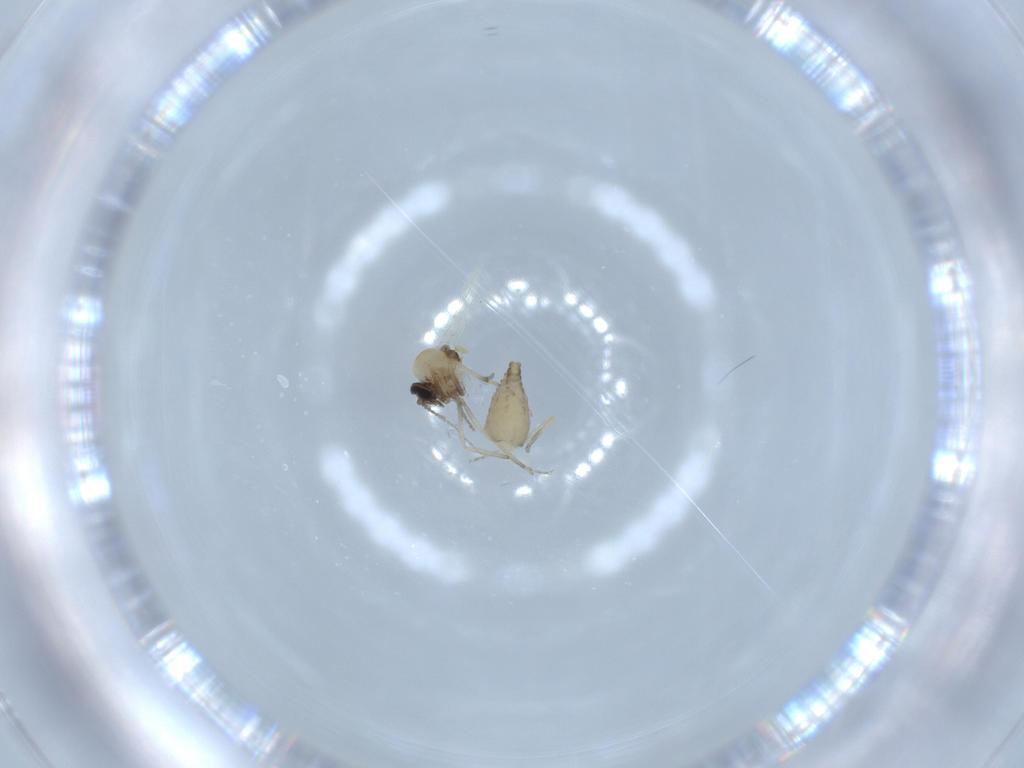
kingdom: Animalia
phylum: Arthropoda
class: Insecta
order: Diptera
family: Ceratopogonidae
